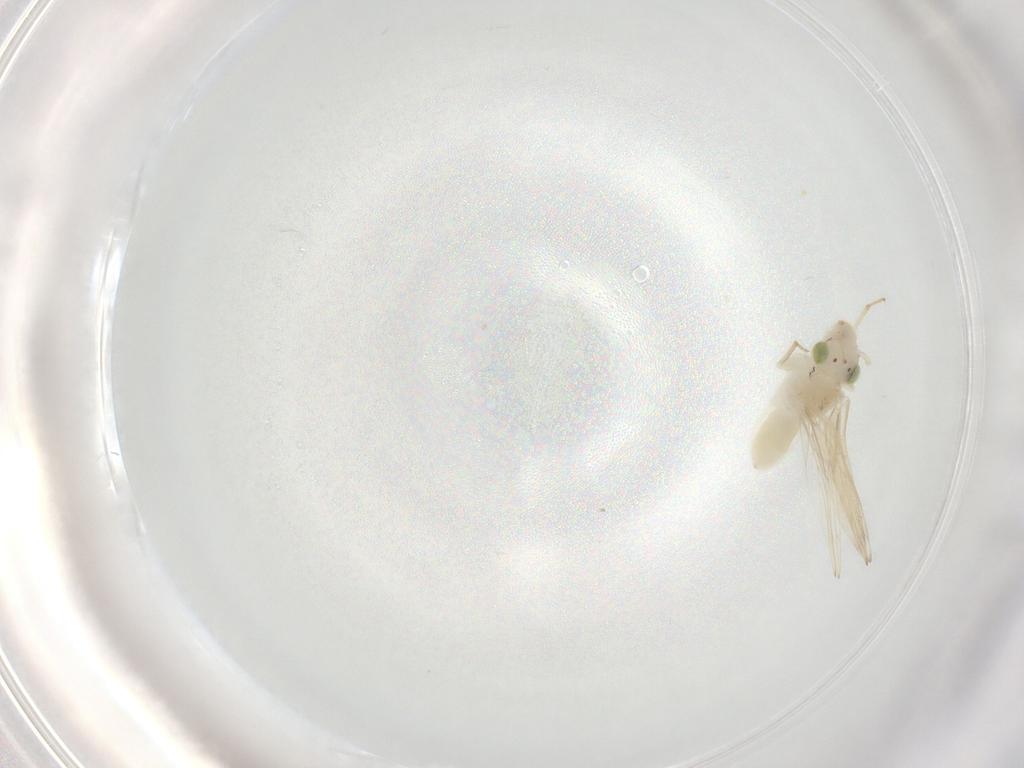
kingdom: Animalia
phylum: Arthropoda
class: Insecta
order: Psocodea
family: Lepidopsocidae
